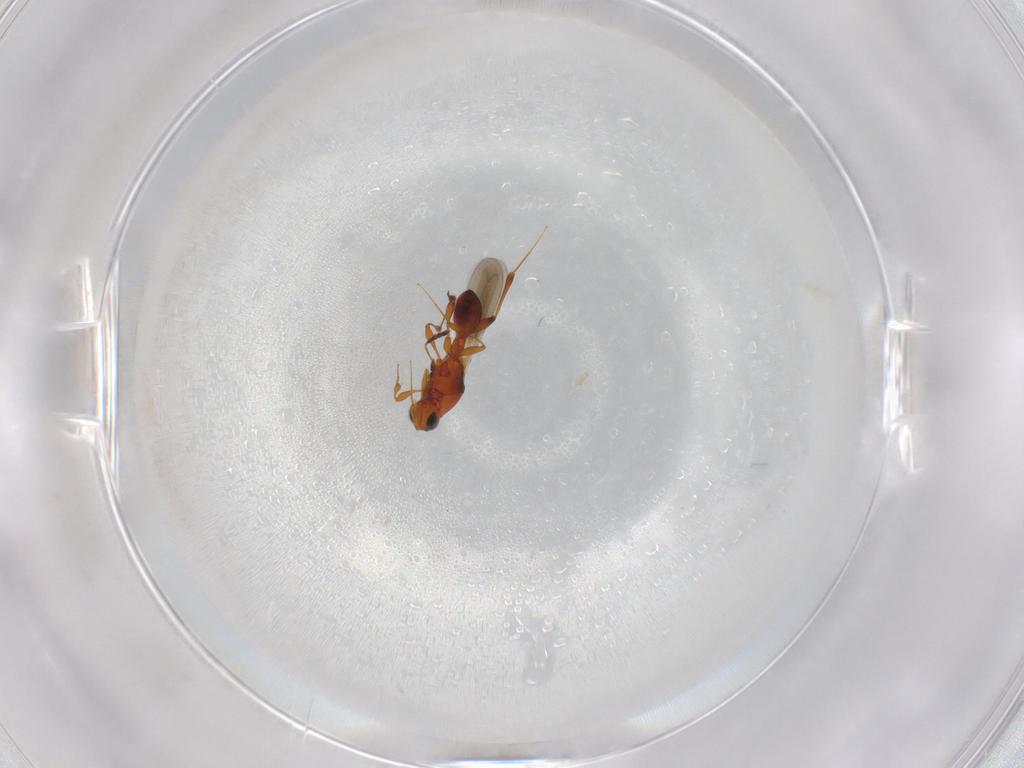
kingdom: Animalia
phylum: Arthropoda
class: Insecta
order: Hymenoptera
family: Platygastridae
